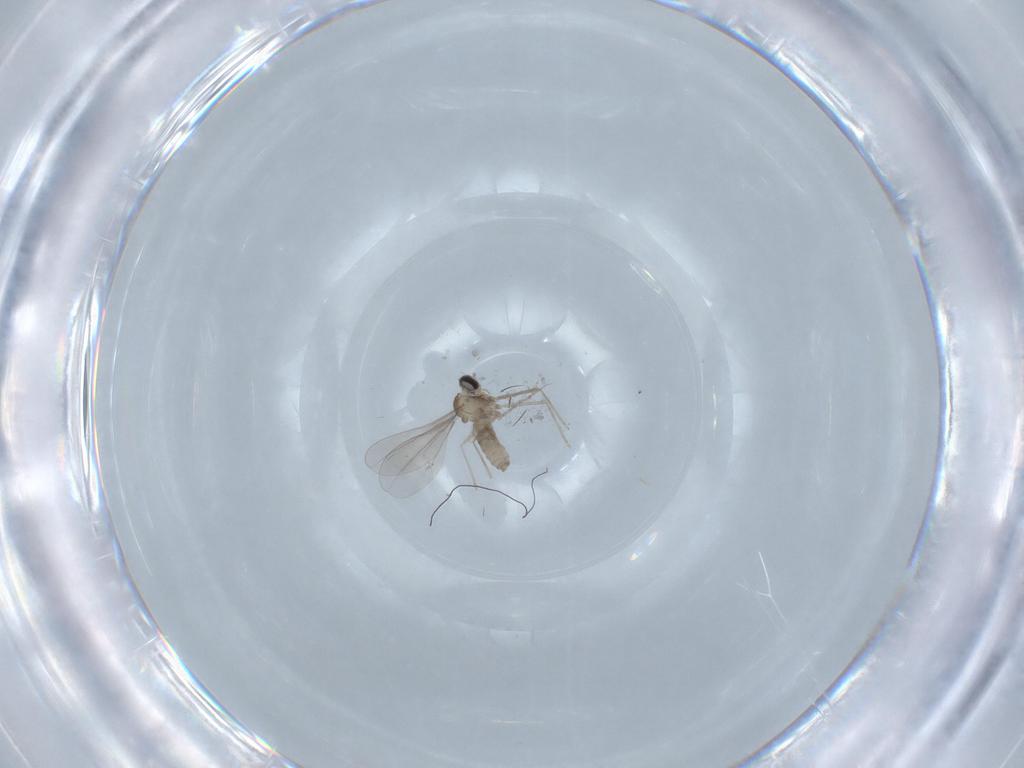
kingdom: Animalia
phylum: Arthropoda
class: Insecta
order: Diptera
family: Cecidomyiidae
